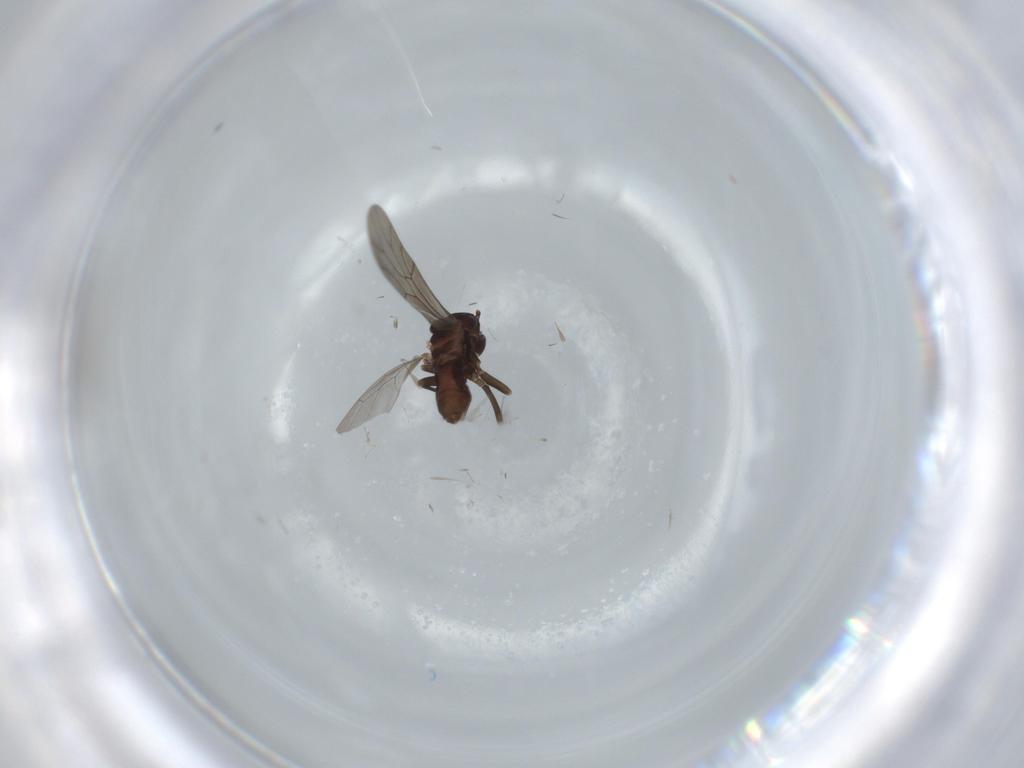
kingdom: Animalia
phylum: Arthropoda
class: Insecta
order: Psocodea
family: Lepidopsocidae
